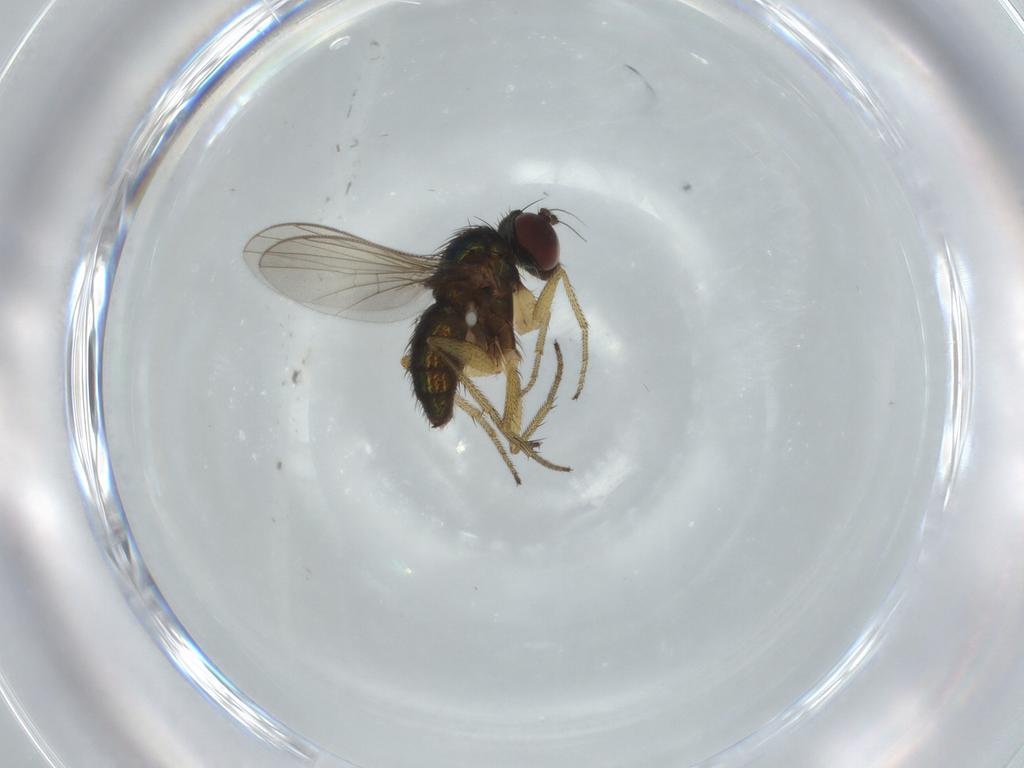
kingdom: Animalia
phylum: Arthropoda
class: Insecta
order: Diptera
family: Dolichopodidae
